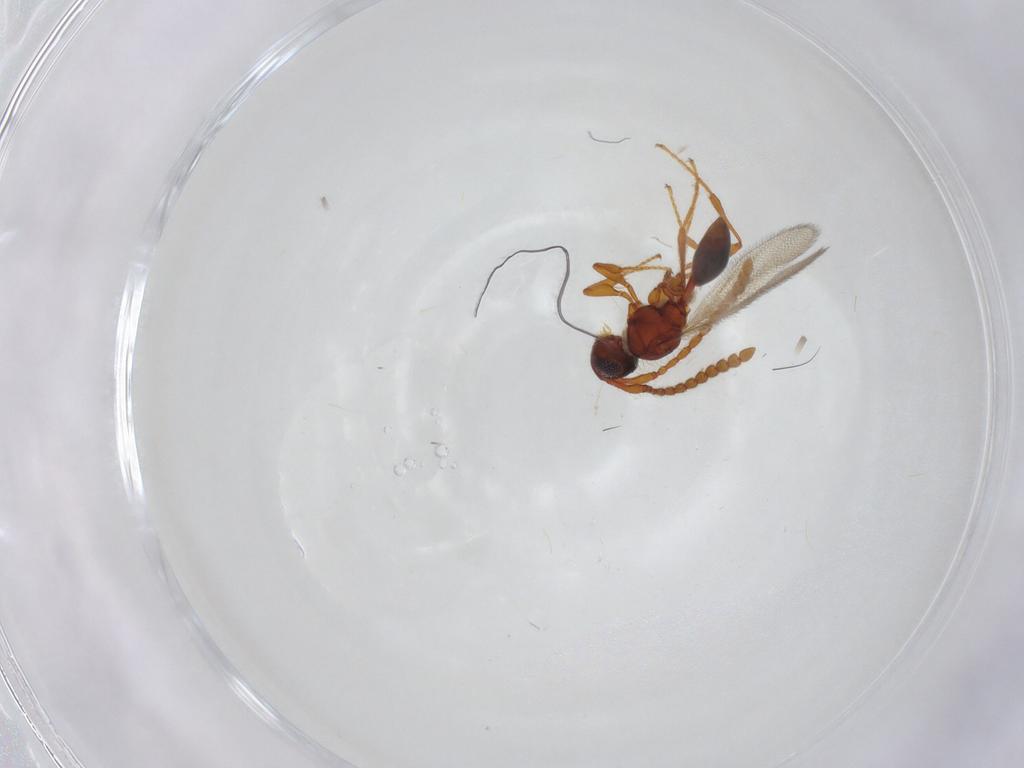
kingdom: Animalia
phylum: Arthropoda
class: Insecta
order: Hymenoptera
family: Diapriidae
